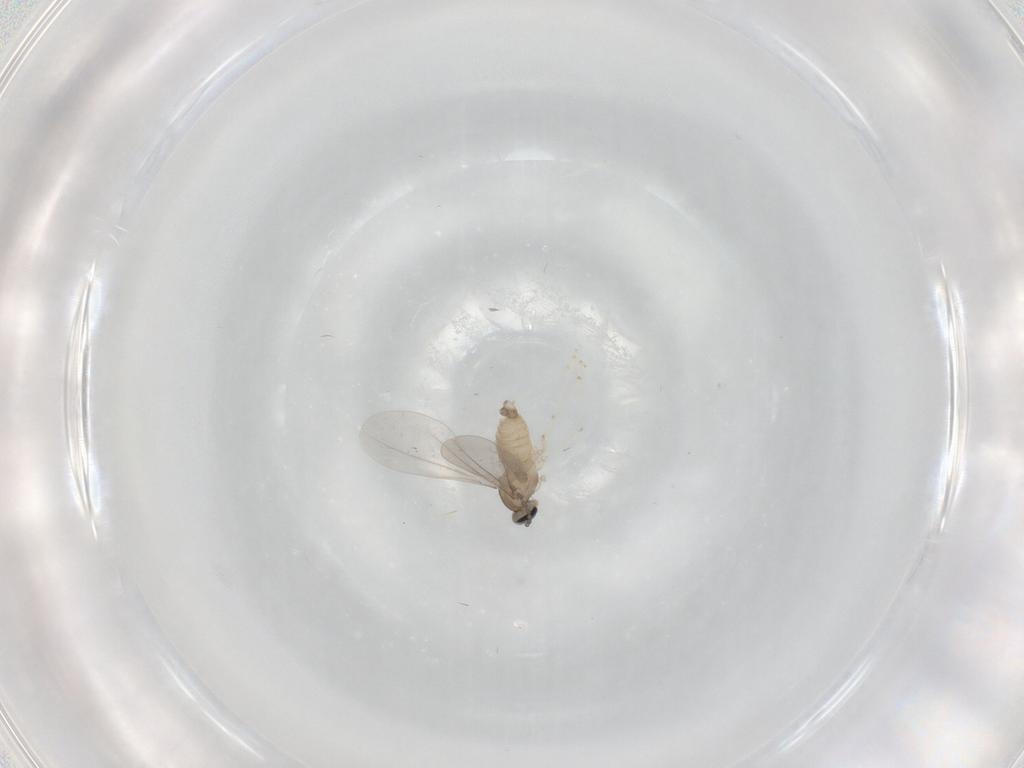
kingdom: Animalia
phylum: Arthropoda
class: Insecta
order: Diptera
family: Cecidomyiidae
